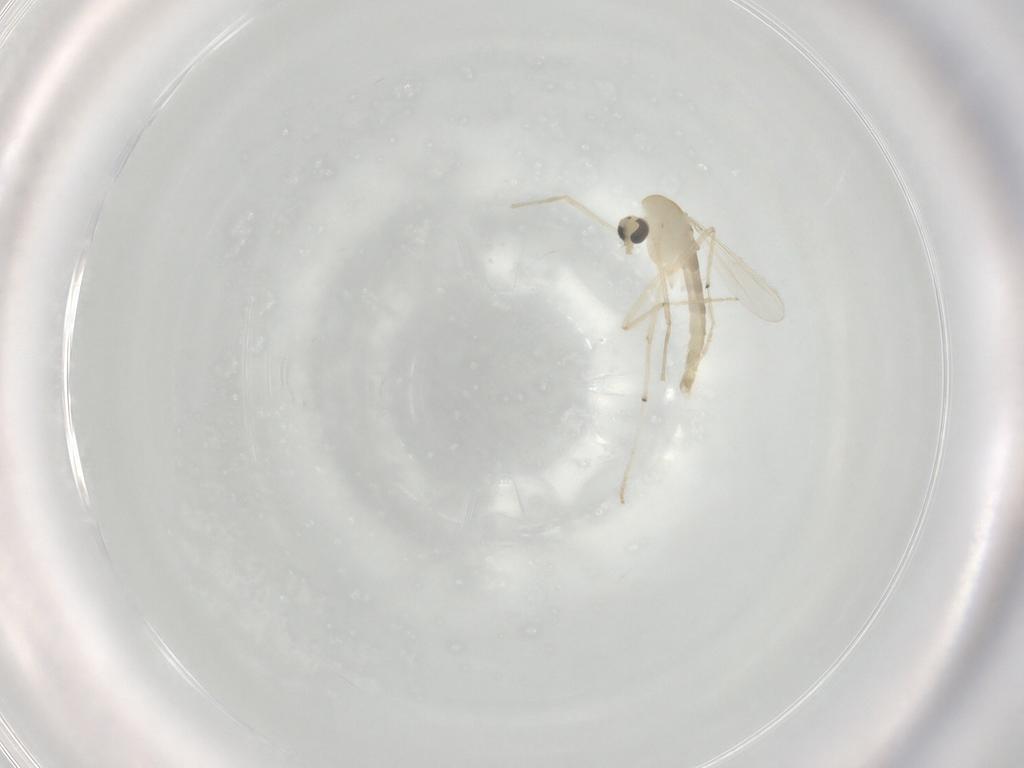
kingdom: Animalia
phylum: Arthropoda
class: Insecta
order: Diptera
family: Chironomidae
